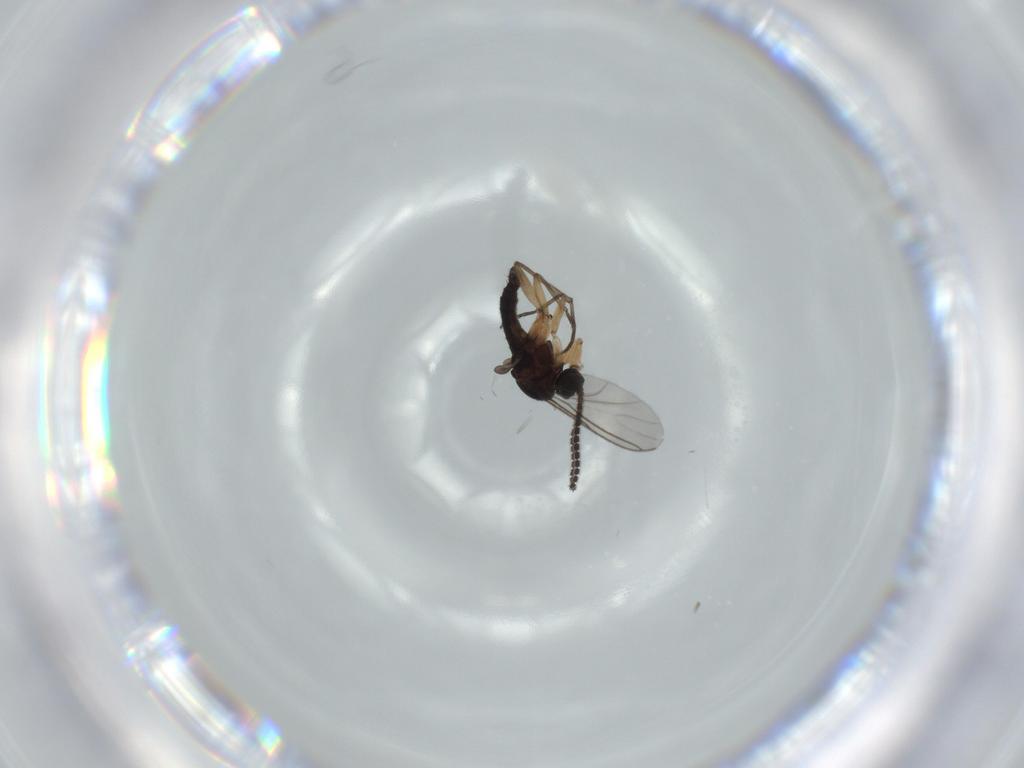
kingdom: Animalia
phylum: Arthropoda
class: Insecta
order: Diptera
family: Sciaridae
